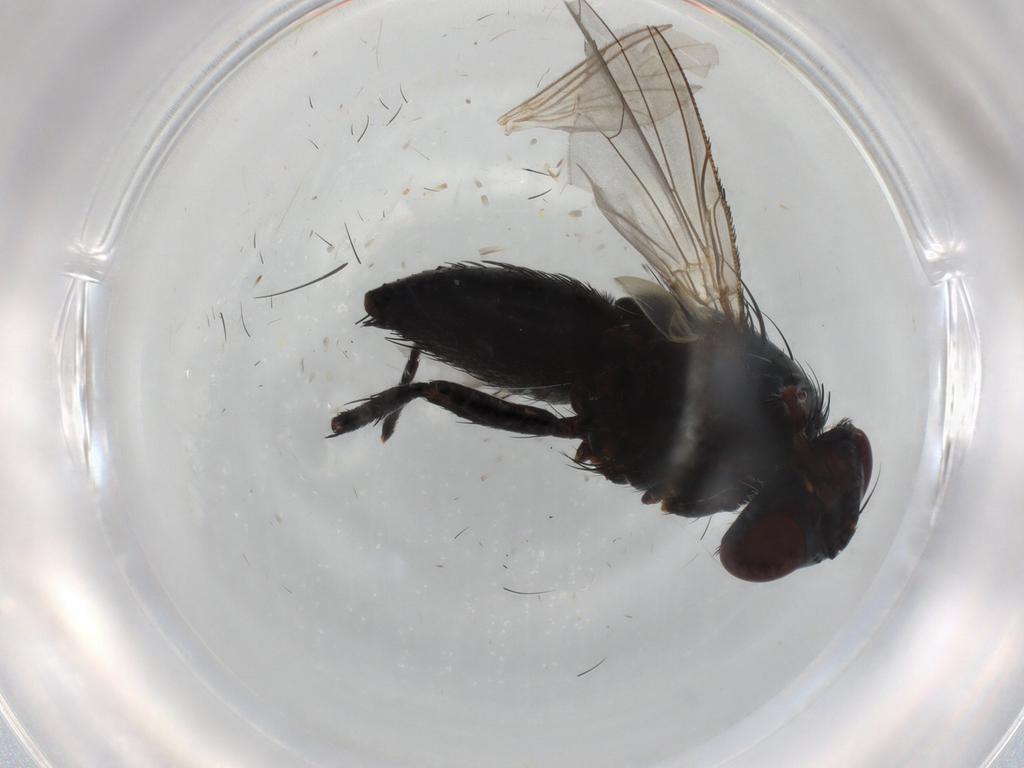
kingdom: Animalia
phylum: Arthropoda
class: Insecta
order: Diptera
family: Tachinidae
